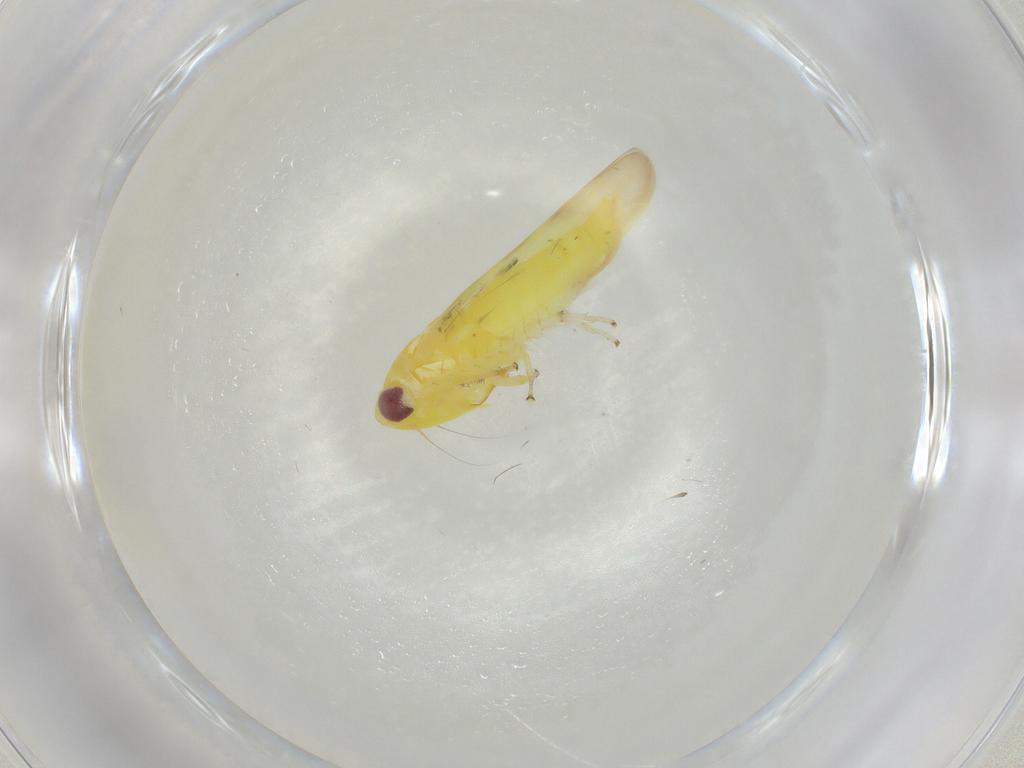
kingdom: Animalia
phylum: Arthropoda
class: Insecta
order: Hemiptera
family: Cicadellidae
